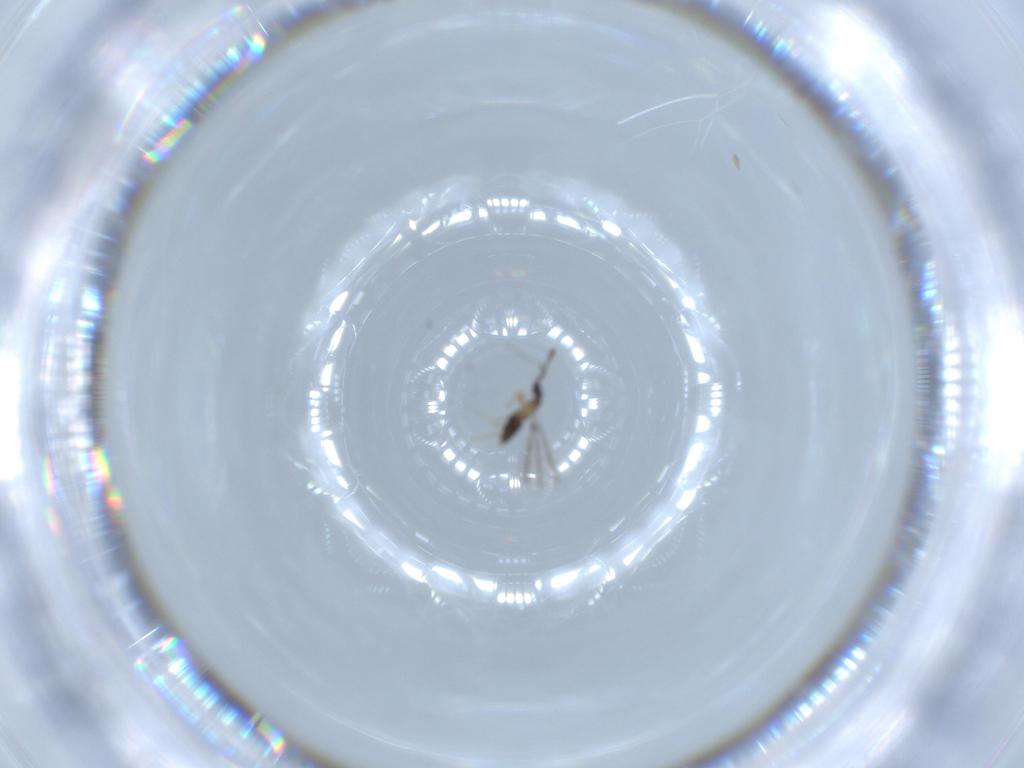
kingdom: Animalia
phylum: Arthropoda
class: Insecta
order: Hymenoptera
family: Mymaridae
